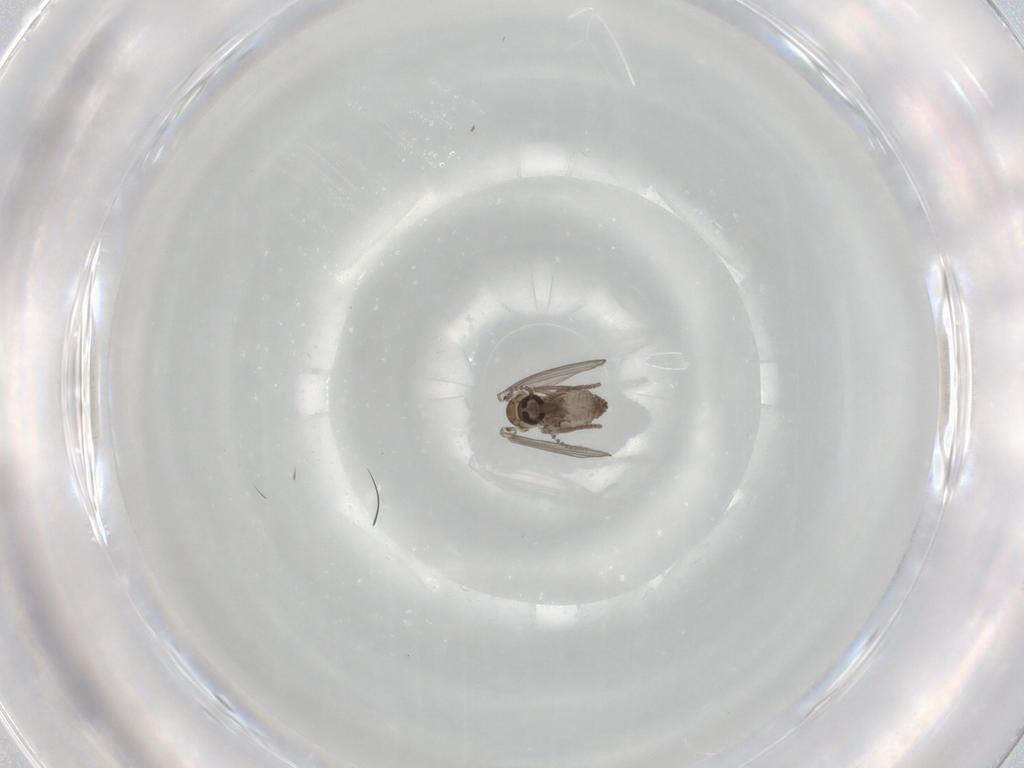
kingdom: Animalia
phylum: Arthropoda
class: Insecta
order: Diptera
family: Psychodidae
